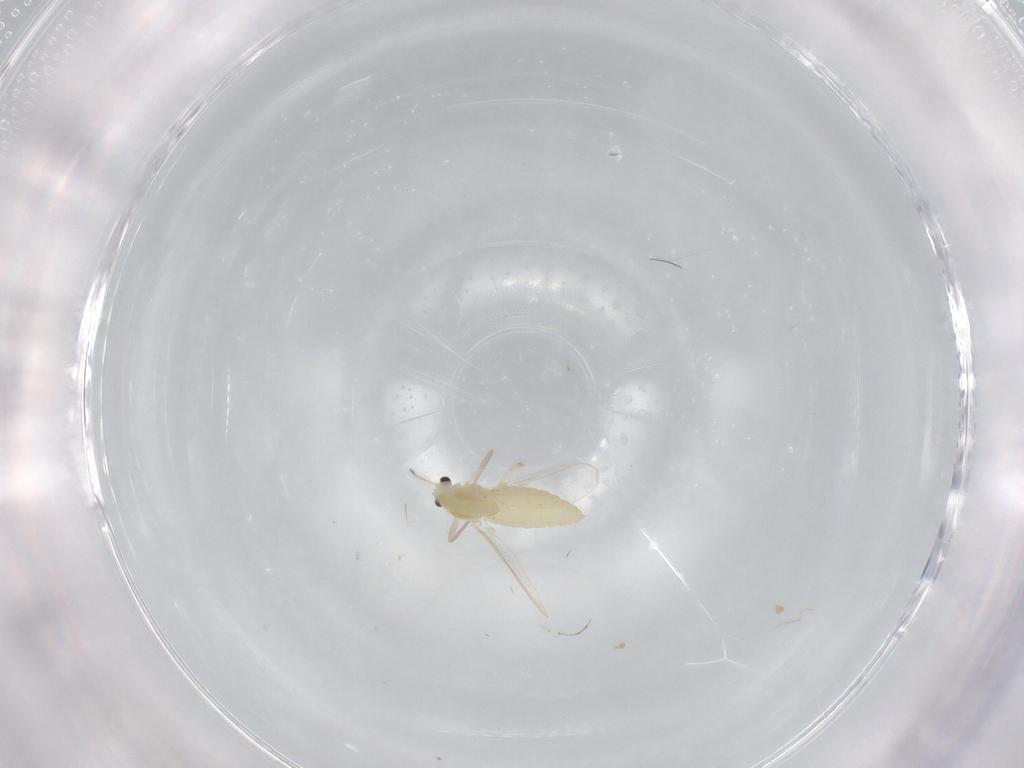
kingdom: Animalia
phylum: Arthropoda
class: Insecta
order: Diptera
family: Chironomidae
